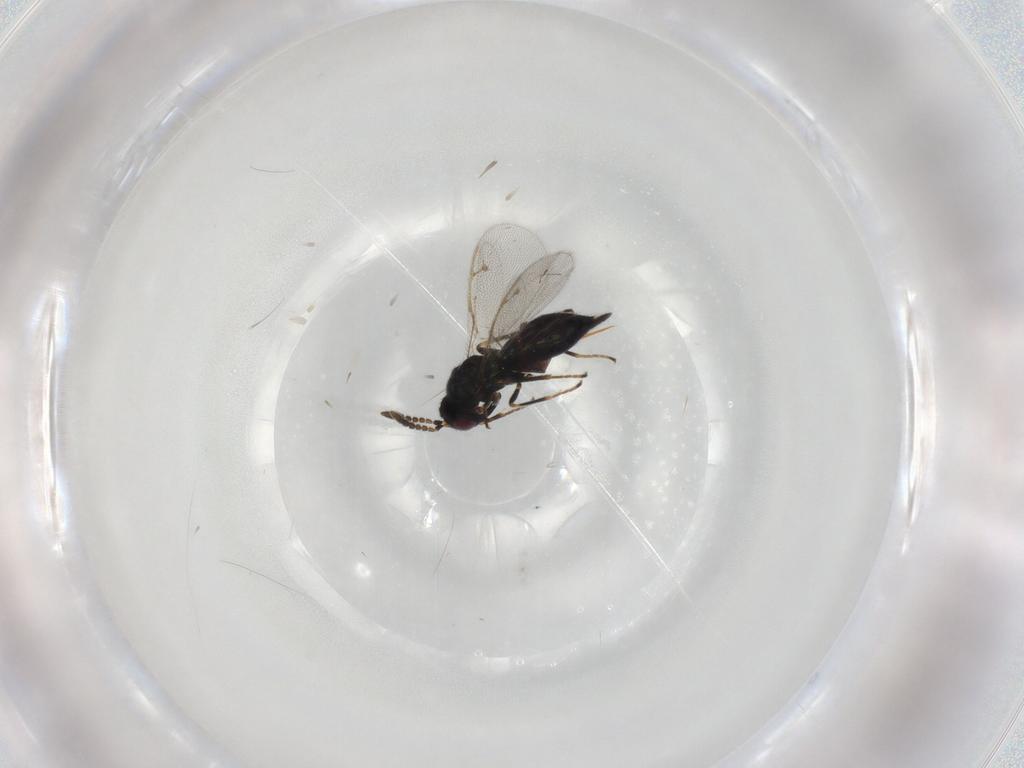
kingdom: Animalia
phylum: Arthropoda
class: Insecta
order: Hymenoptera
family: Pirenidae
